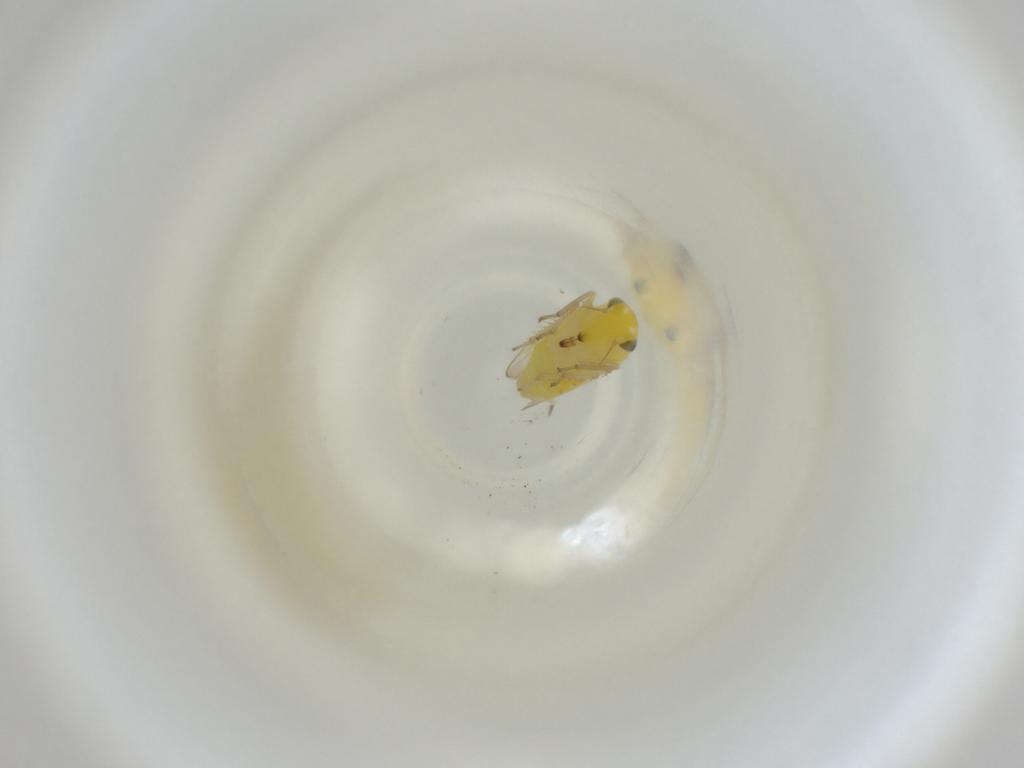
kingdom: Animalia
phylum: Arthropoda
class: Insecta
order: Hemiptera
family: Cicadellidae
